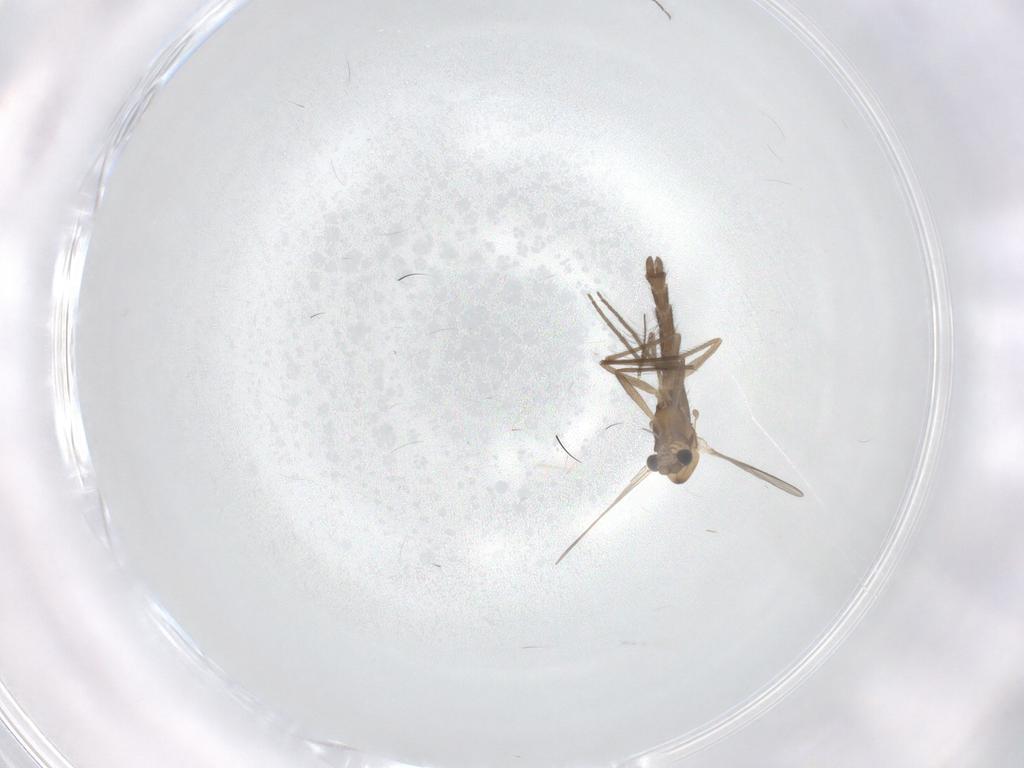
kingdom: Animalia
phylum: Arthropoda
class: Insecta
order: Diptera
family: Chironomidae
